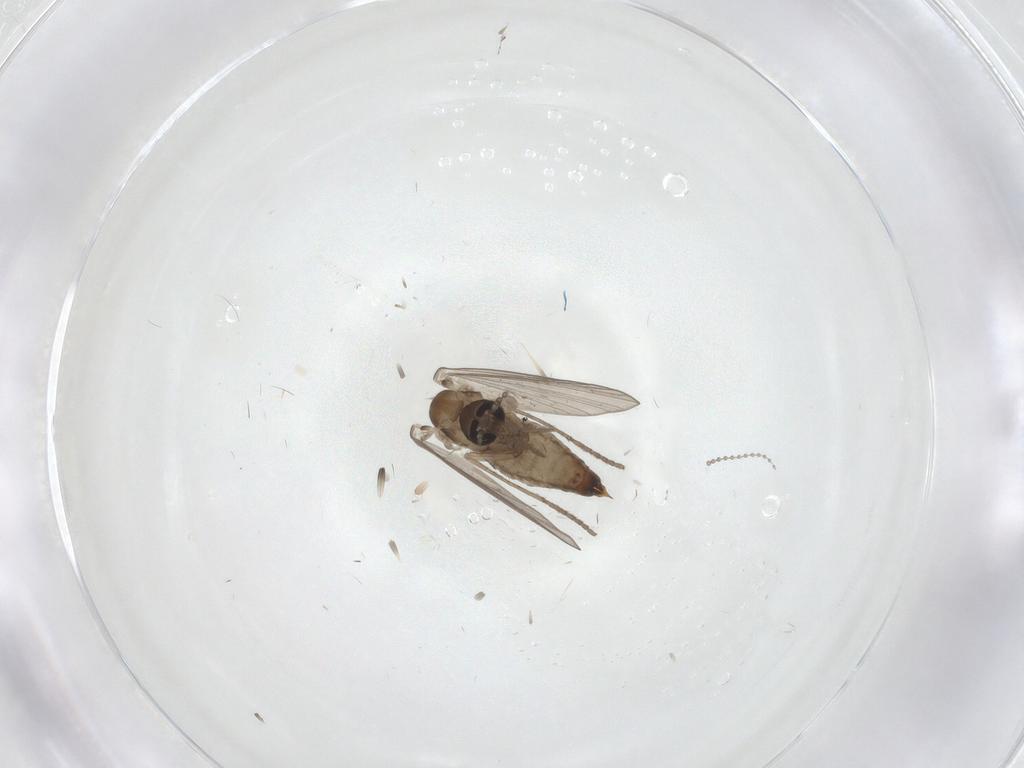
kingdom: Animalia
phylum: Arthropoda
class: Insecta
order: Diptera
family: Psychodidae
